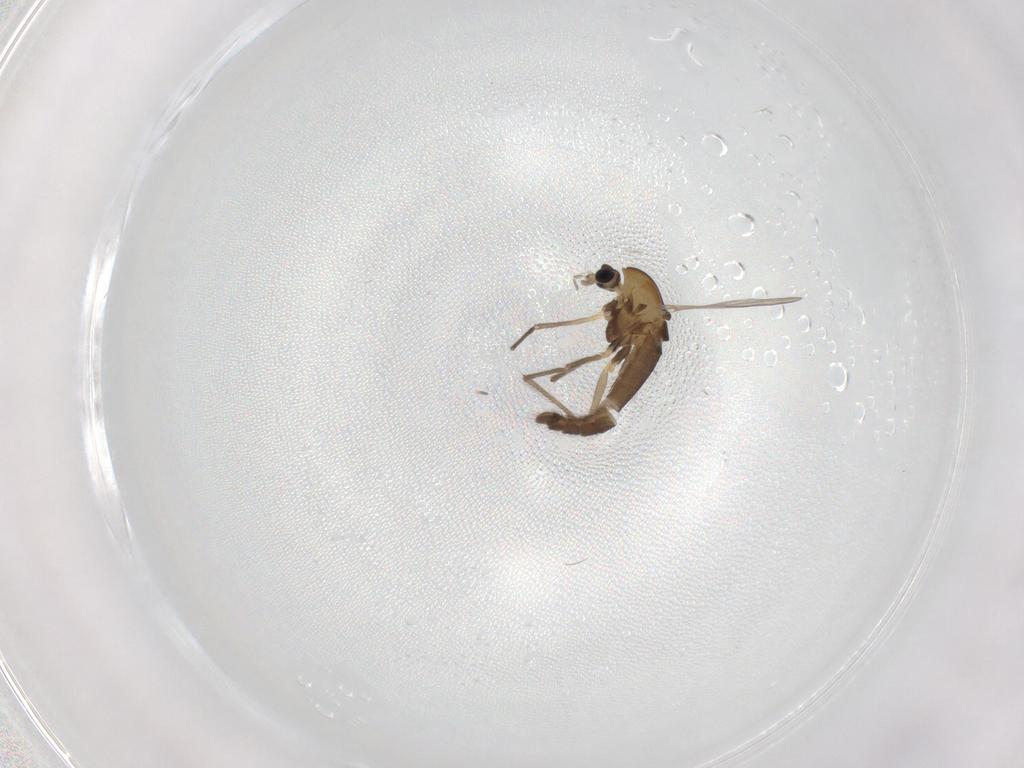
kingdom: Animalia
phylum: Arthropoda
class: Insecta
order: Diptera
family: Chironomidae
